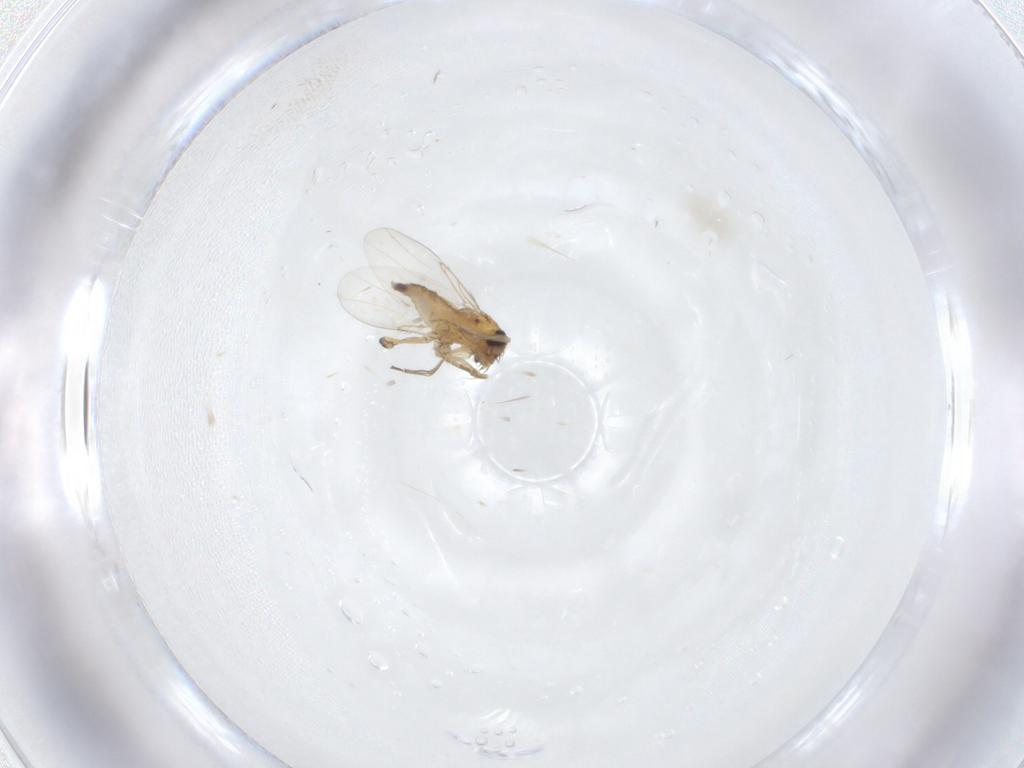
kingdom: Animalia
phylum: Arthropoda
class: Insecta
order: Diptera
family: Phoridae
